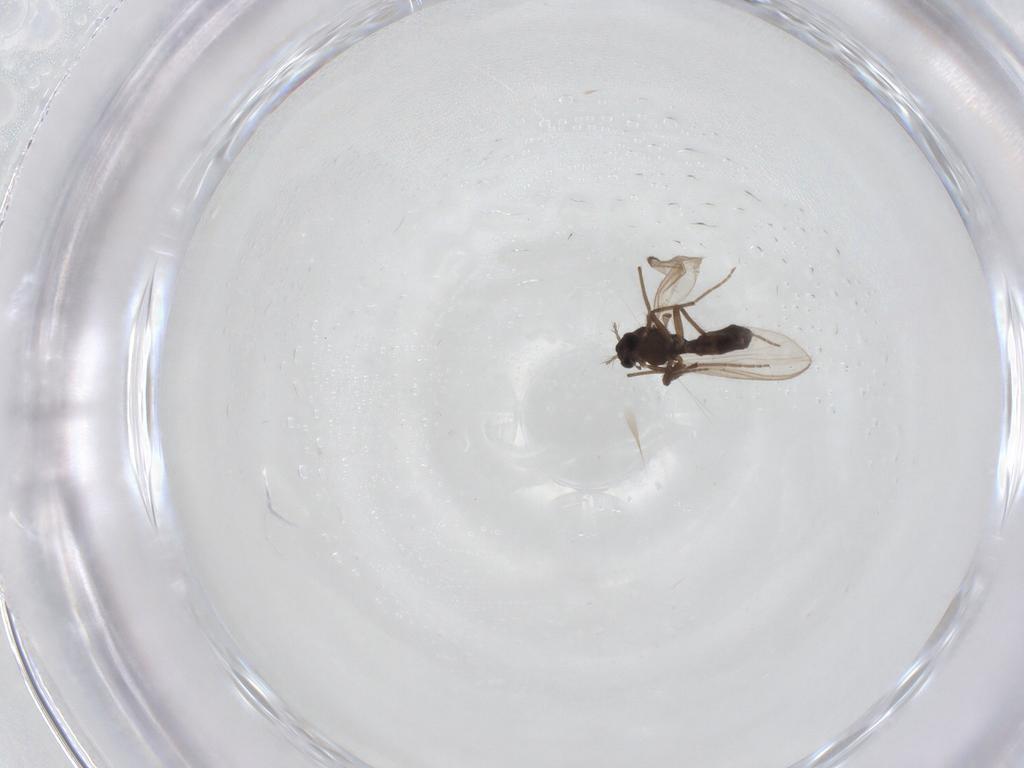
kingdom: Animalia
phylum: Arthropoda
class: Insecta
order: Diptera
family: Chironomidae
